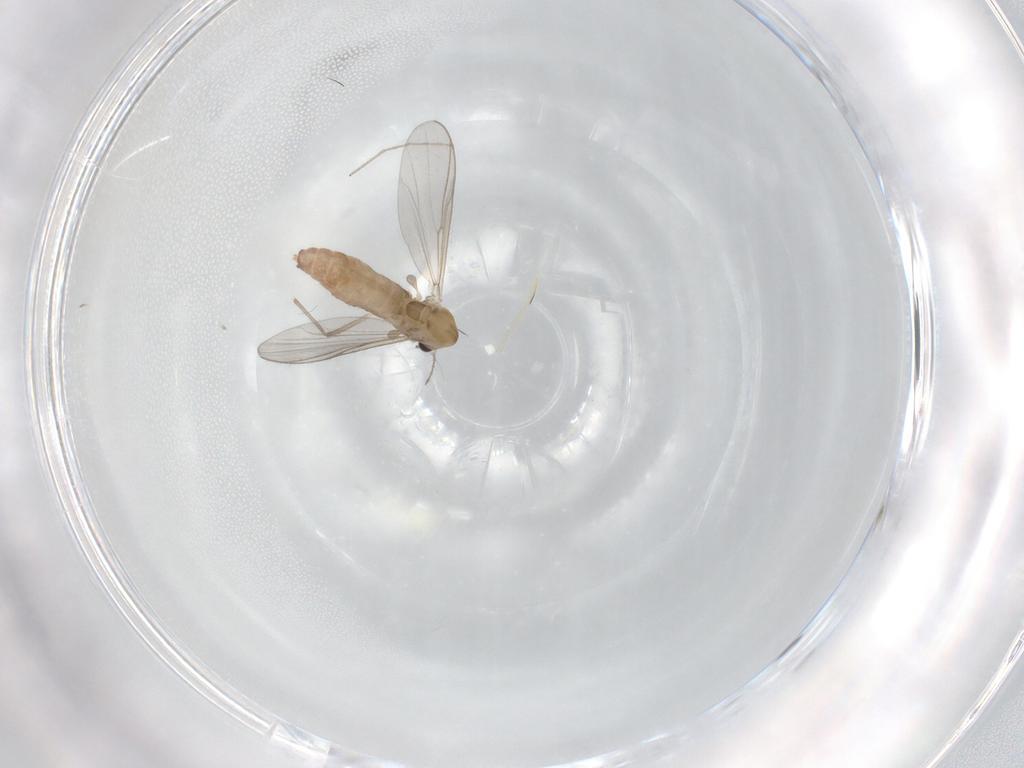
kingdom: Animalia
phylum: Arthropoda
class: Insecta
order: Diptera
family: Chironomidae
